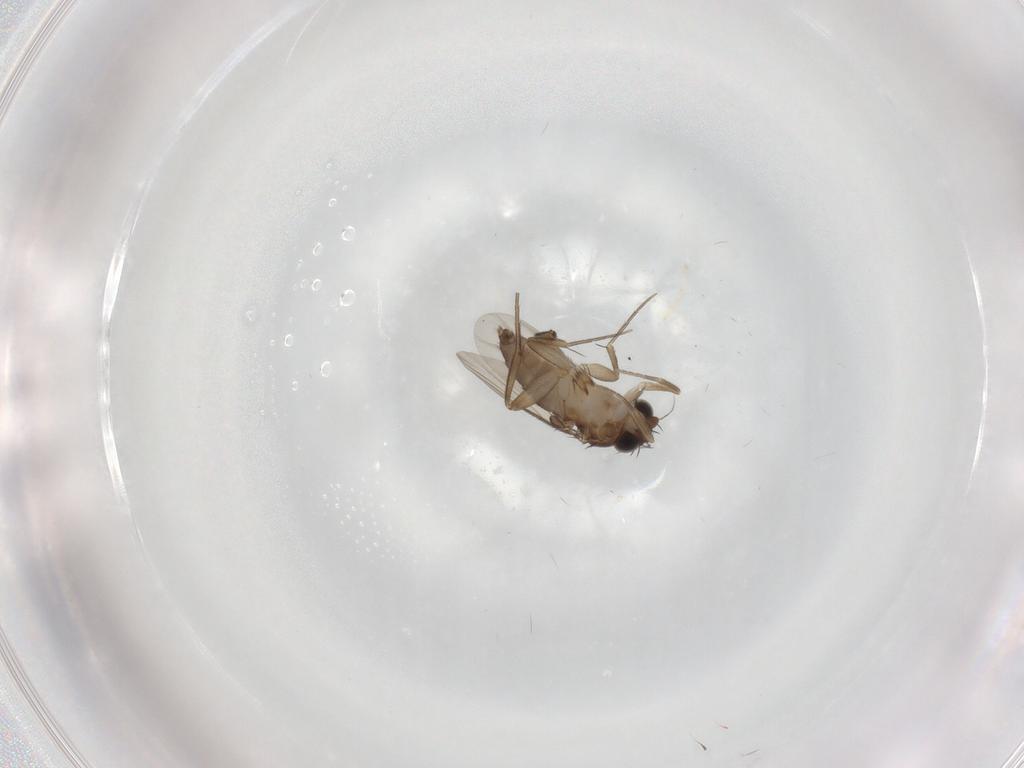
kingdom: Animalia
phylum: Arthropoda
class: Insecta
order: Diptera
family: Phoridae
